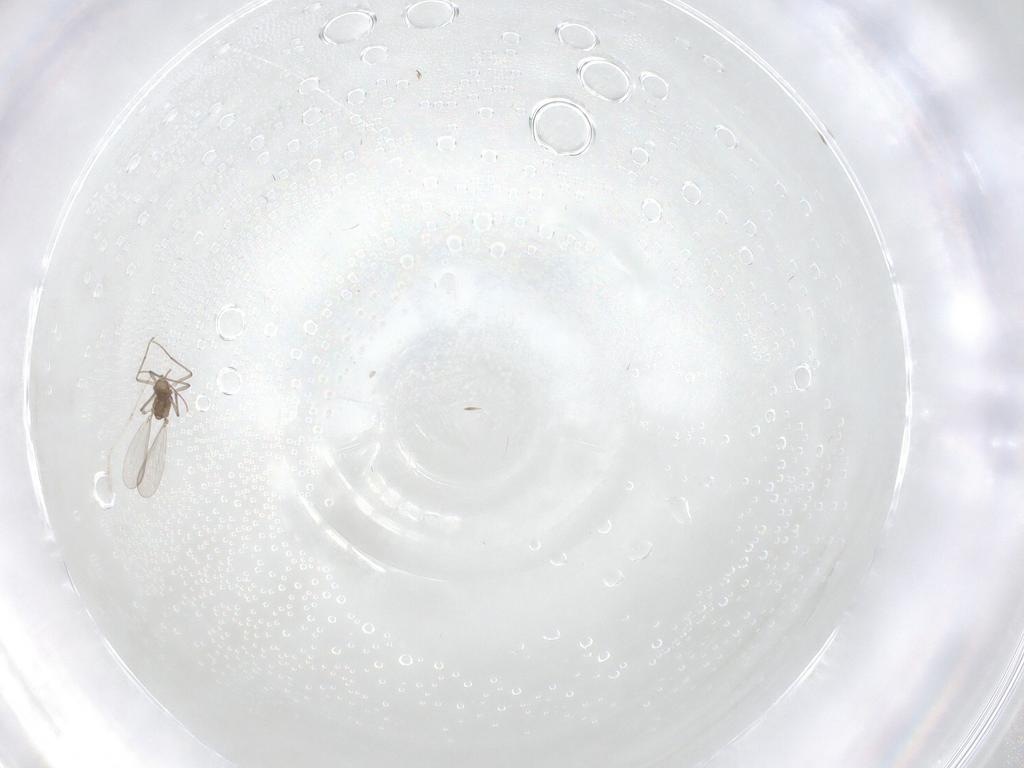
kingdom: Animalia
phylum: Arthropoda
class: Insecta
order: Diptera
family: Cecidomyiidae
